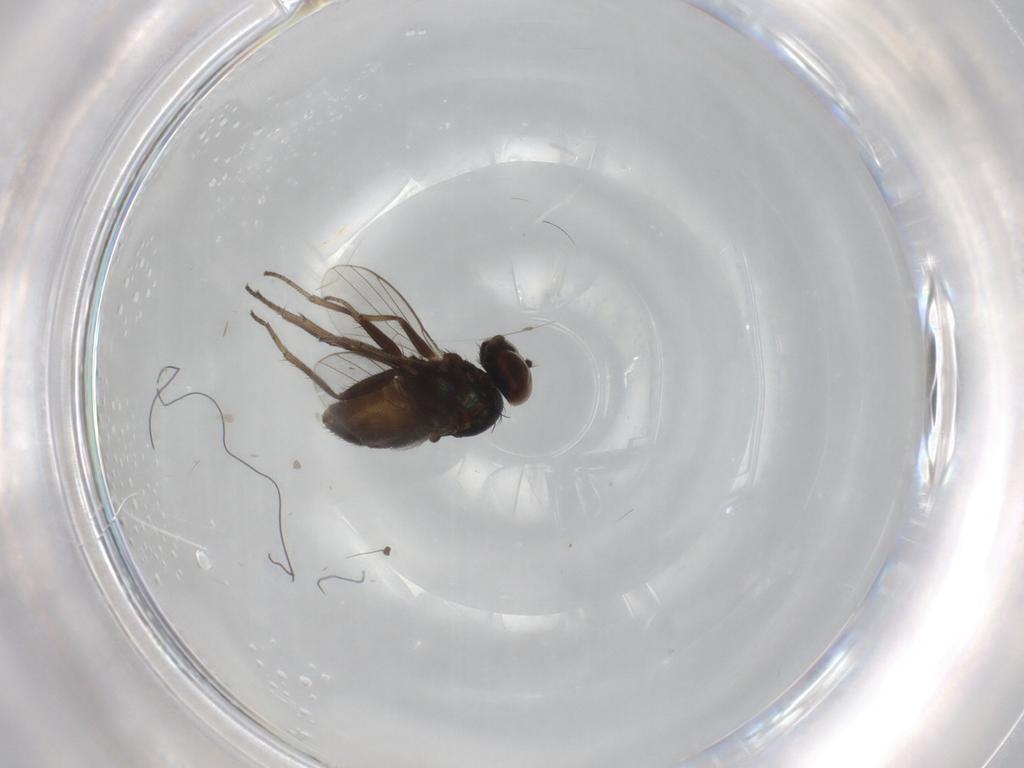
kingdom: Animalia
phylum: Arthropoda
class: Insecta
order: Diptera
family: Dolichopodidae
